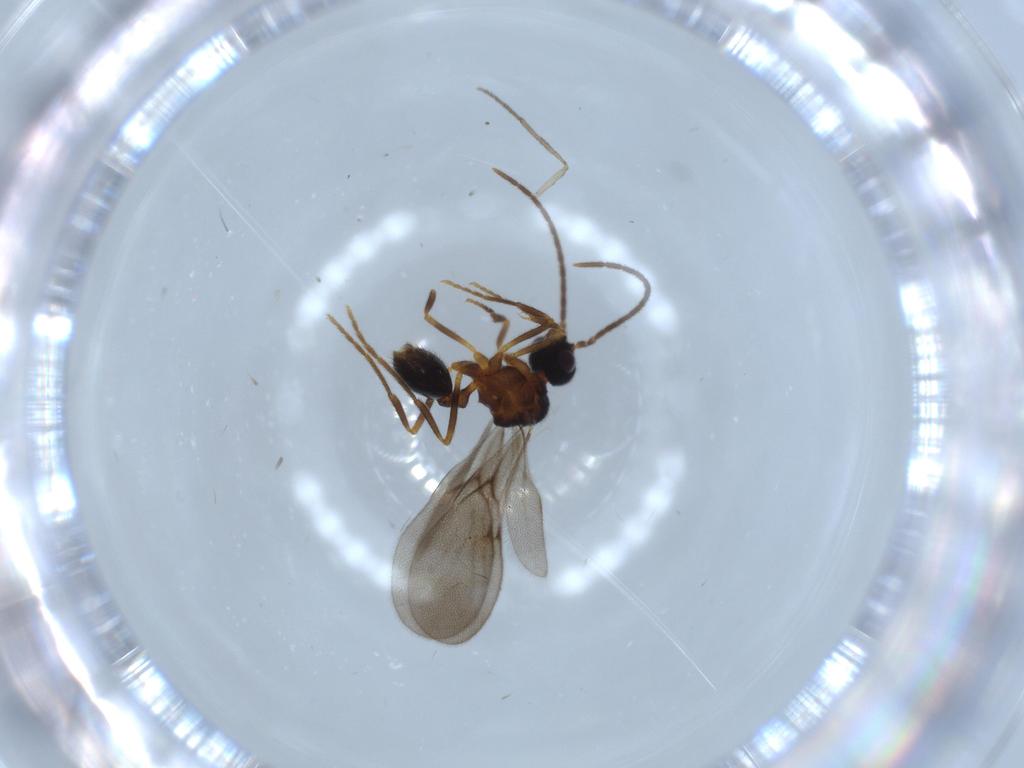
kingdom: Animalia
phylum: Arthropoda
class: Insecta
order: Hymenoptera
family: Formicidae
